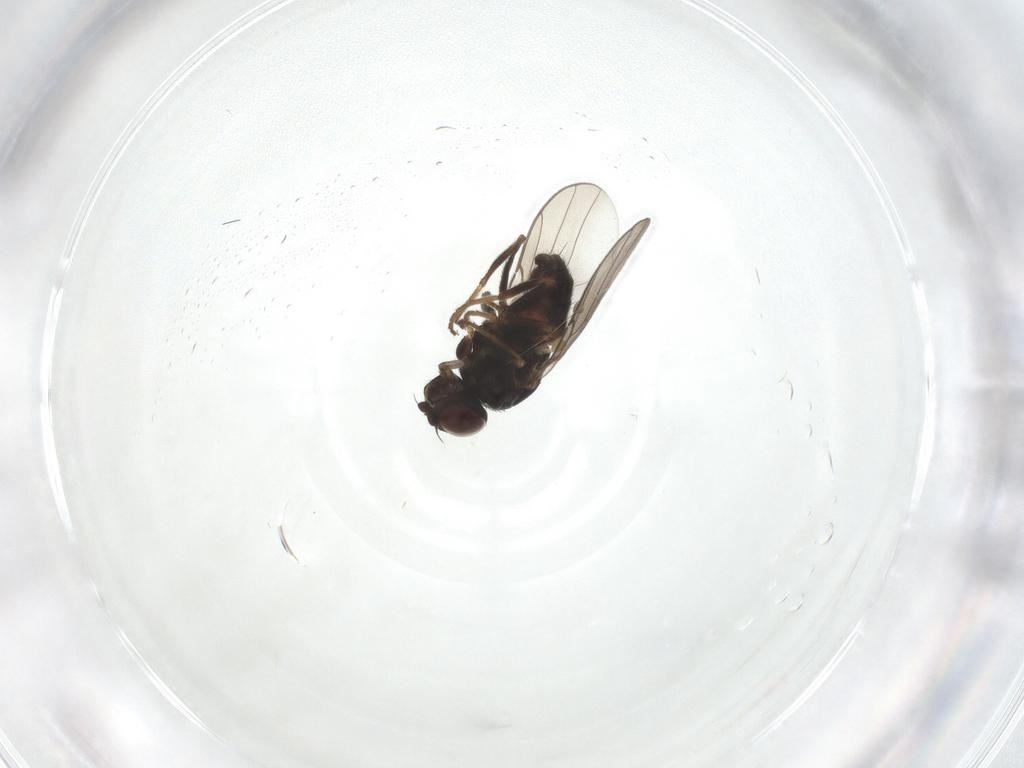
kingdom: Animalia
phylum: Arthropoda
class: Insecta
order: Diptera
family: Chloropidae
